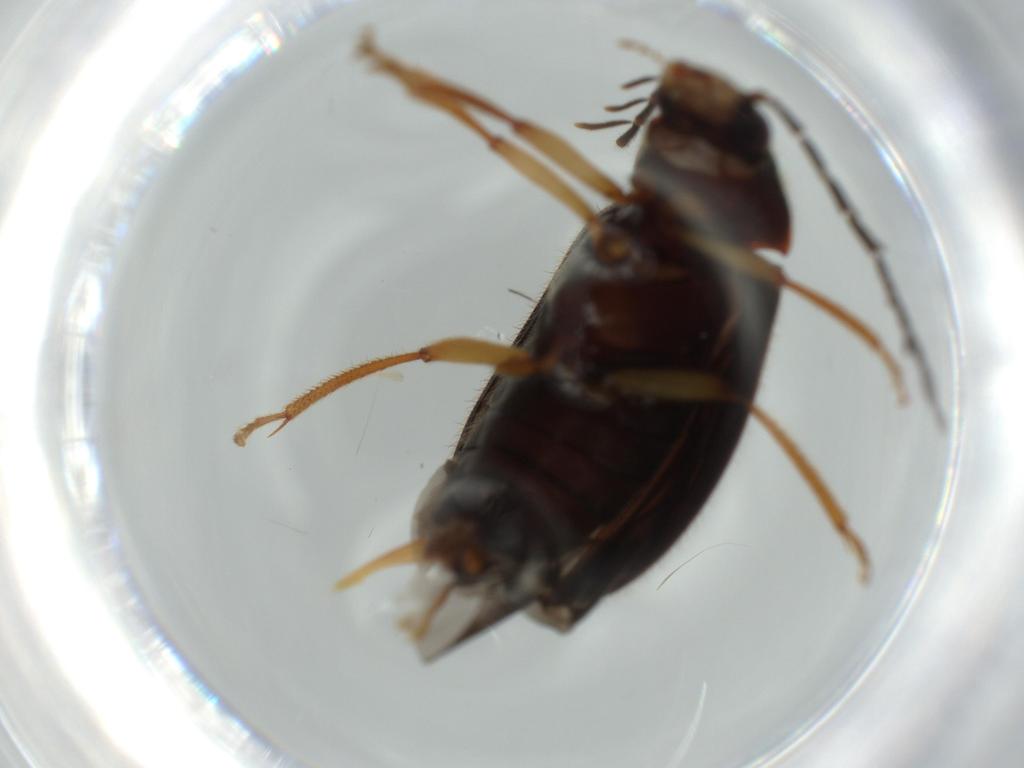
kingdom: Animalia
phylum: Arthropoda
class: Insecta
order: Coleoptera
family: Ptilodactylidae
